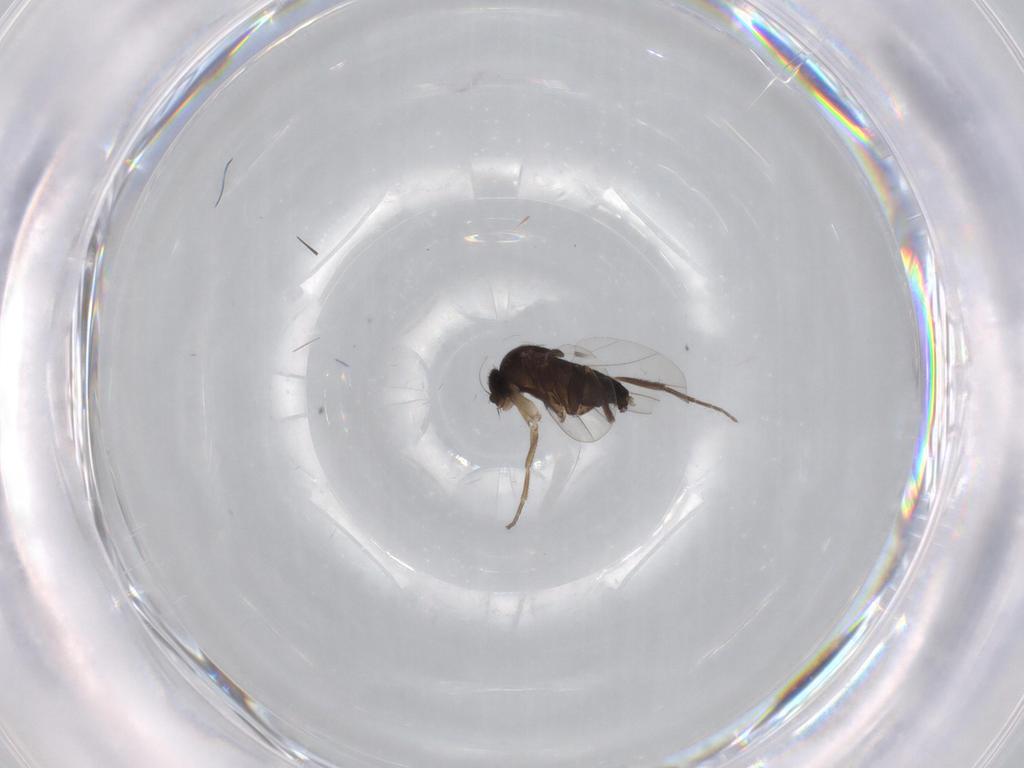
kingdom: Animalia
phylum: Arthropoda
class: Insecta
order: Diptera
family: Phoridae
